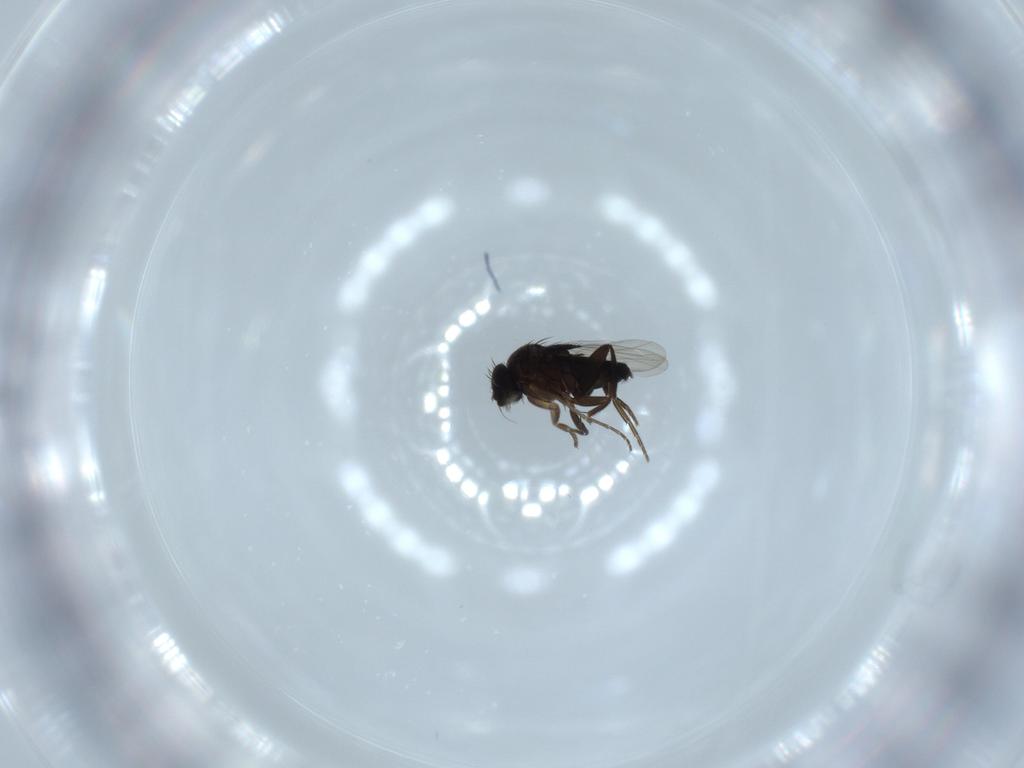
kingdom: Animalia
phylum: Arthropoda
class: Insecta
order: Diptera
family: Phoridae
